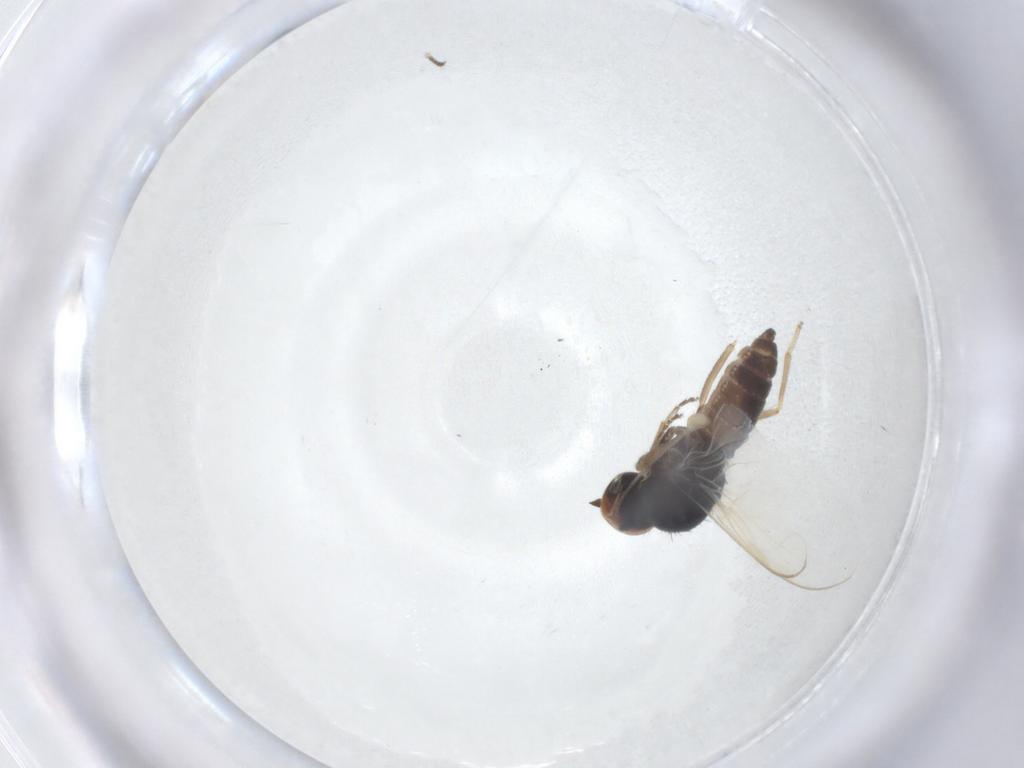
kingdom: Animalia
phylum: Arthropoda
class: Insecta
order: Diptera
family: Hybotidae
